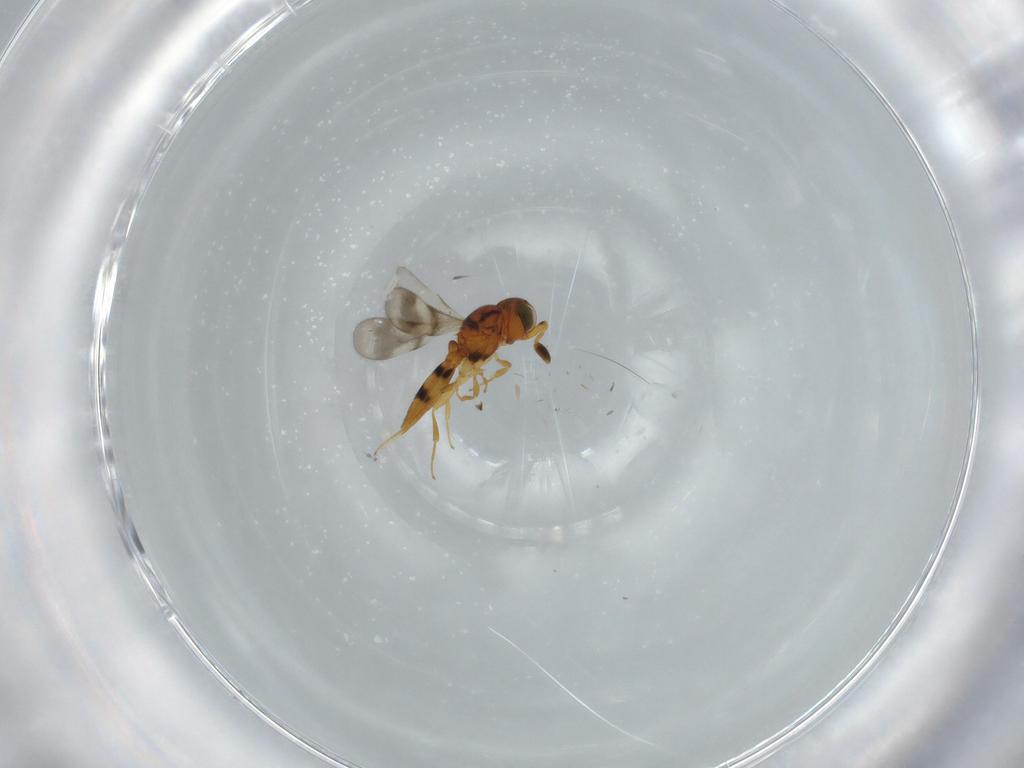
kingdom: Animalia
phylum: Arthropoda
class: Insecta
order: Hymenoptera
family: Scelionidae
